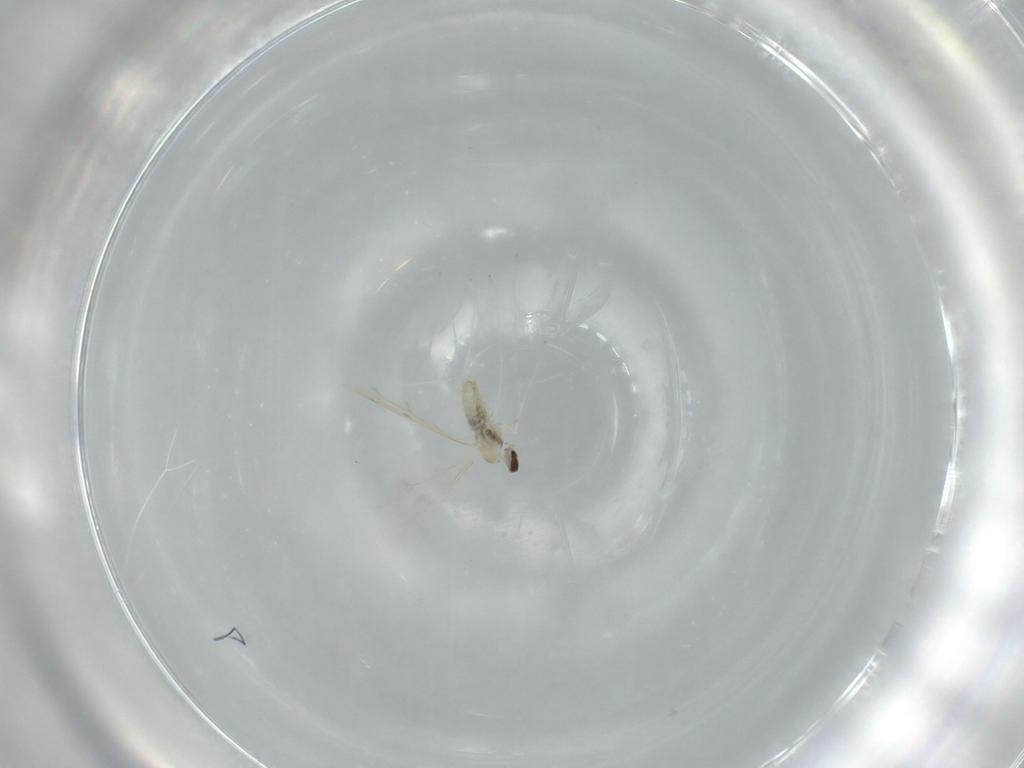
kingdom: Animalia
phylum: Arthropoda
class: Insecta
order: Diptera
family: Cecidomyiidae
